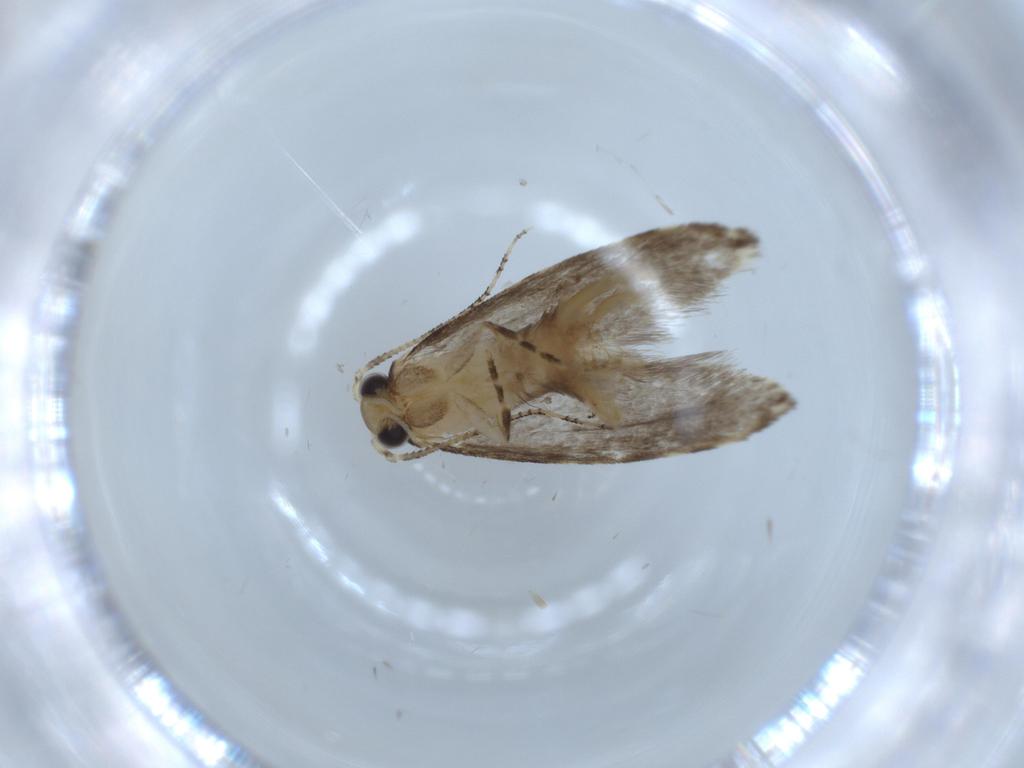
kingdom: Animalia
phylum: Arthropoda
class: Insecta
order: Lepidoptera
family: Tineidae
